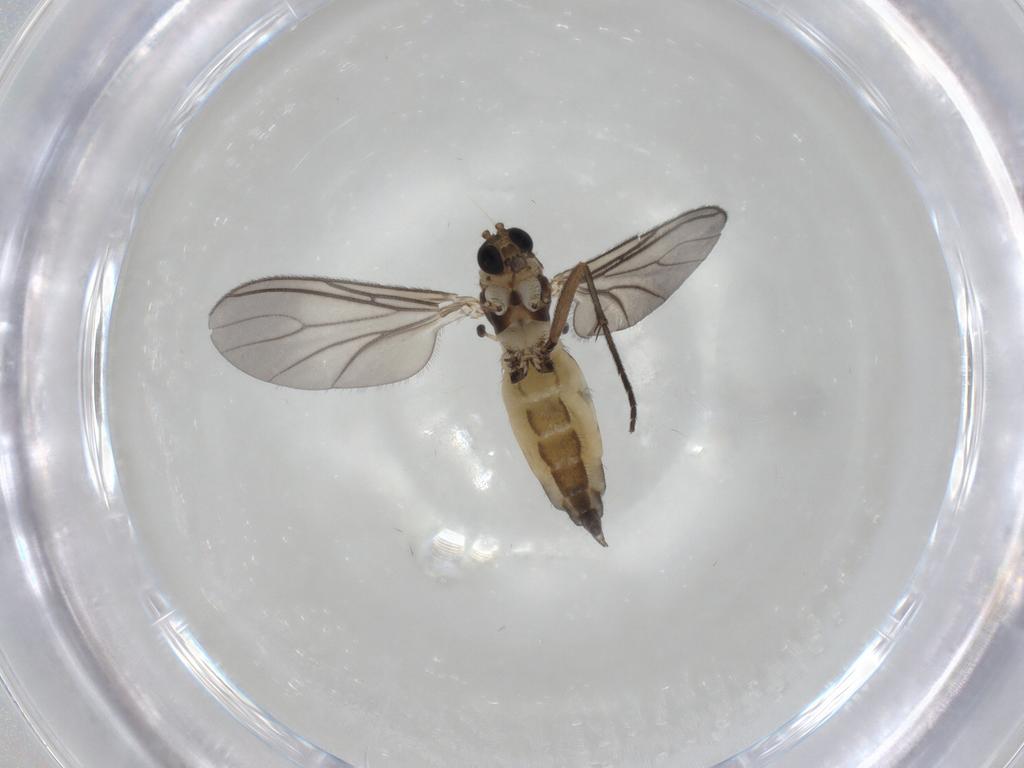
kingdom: Animalia
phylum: Arthropoda
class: Insecta
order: Diptera
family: Sciaridae
